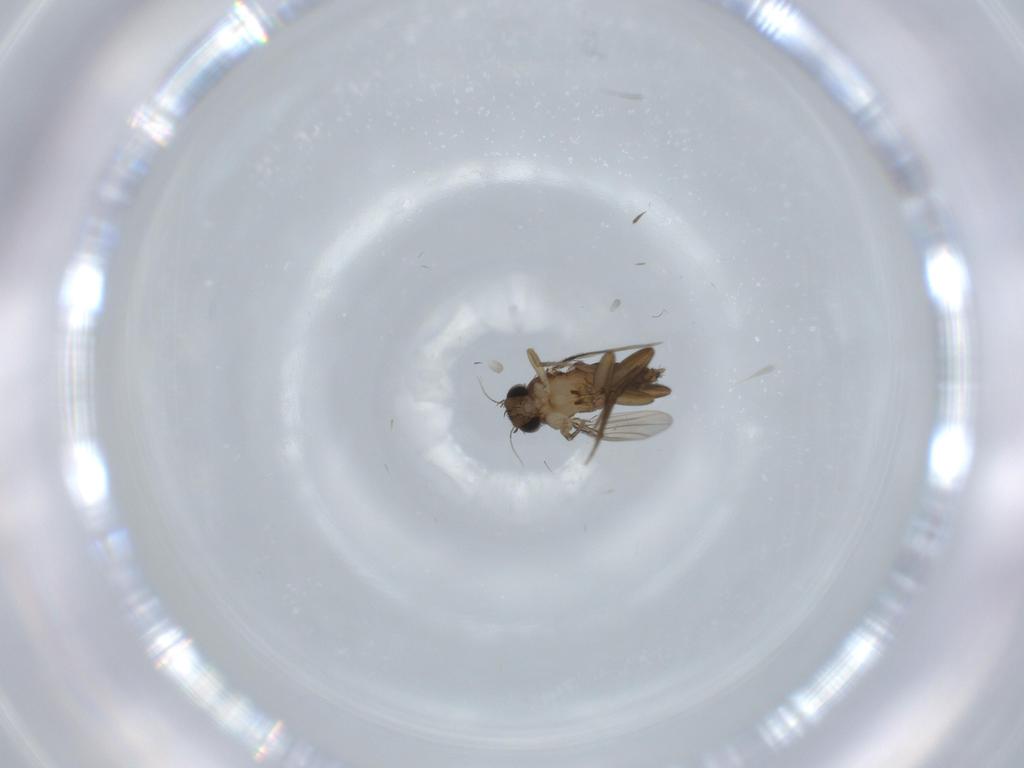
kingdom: Animalia
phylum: Arthropoda
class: Insecta
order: Diptera
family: Phoridae
